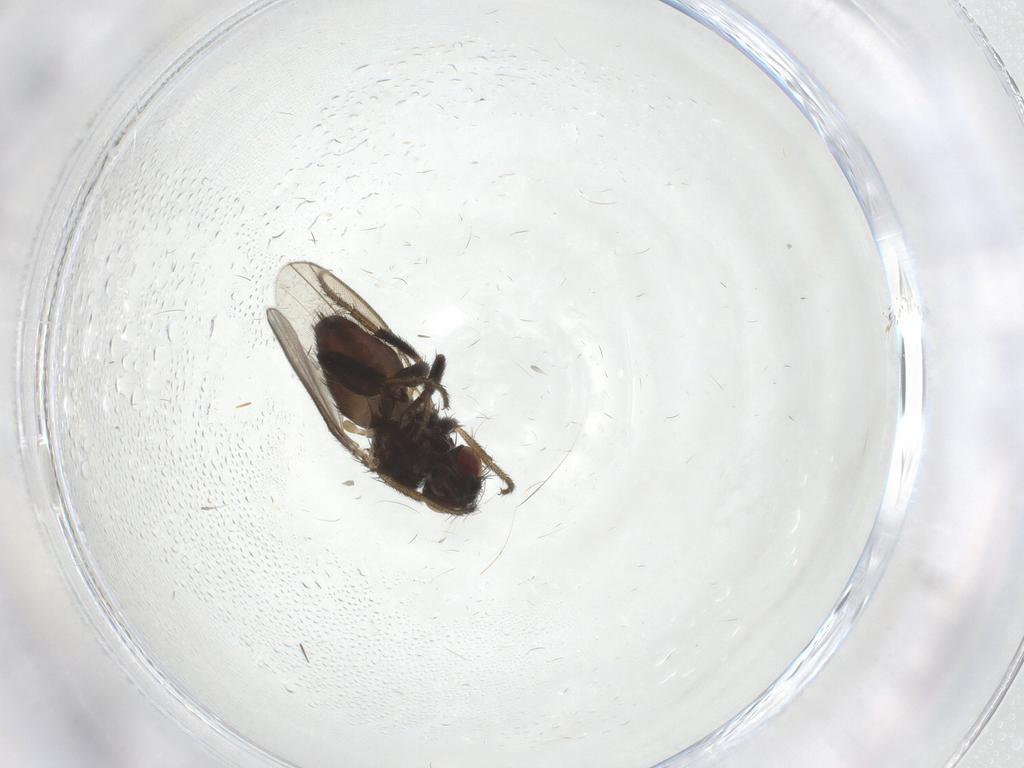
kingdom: Animalia
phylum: Arthropoda
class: Insecta
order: Diptera
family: Milichiidae
